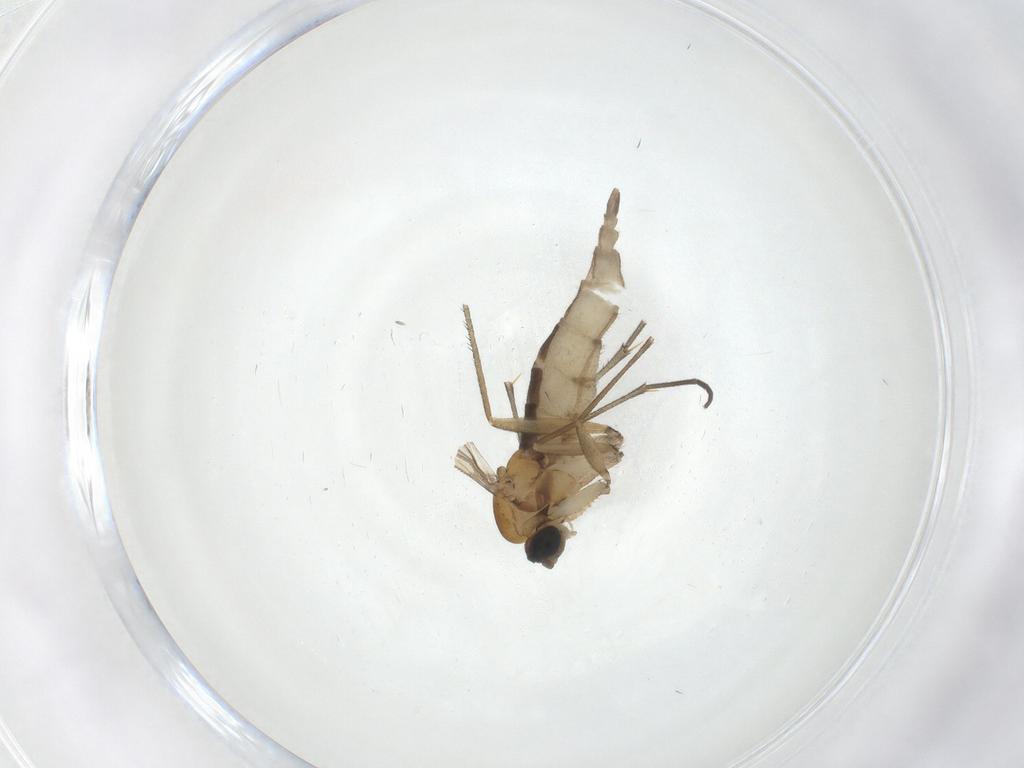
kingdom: Animalia
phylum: Arthropoda
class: Insecta
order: Diptera
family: Sciaridae
